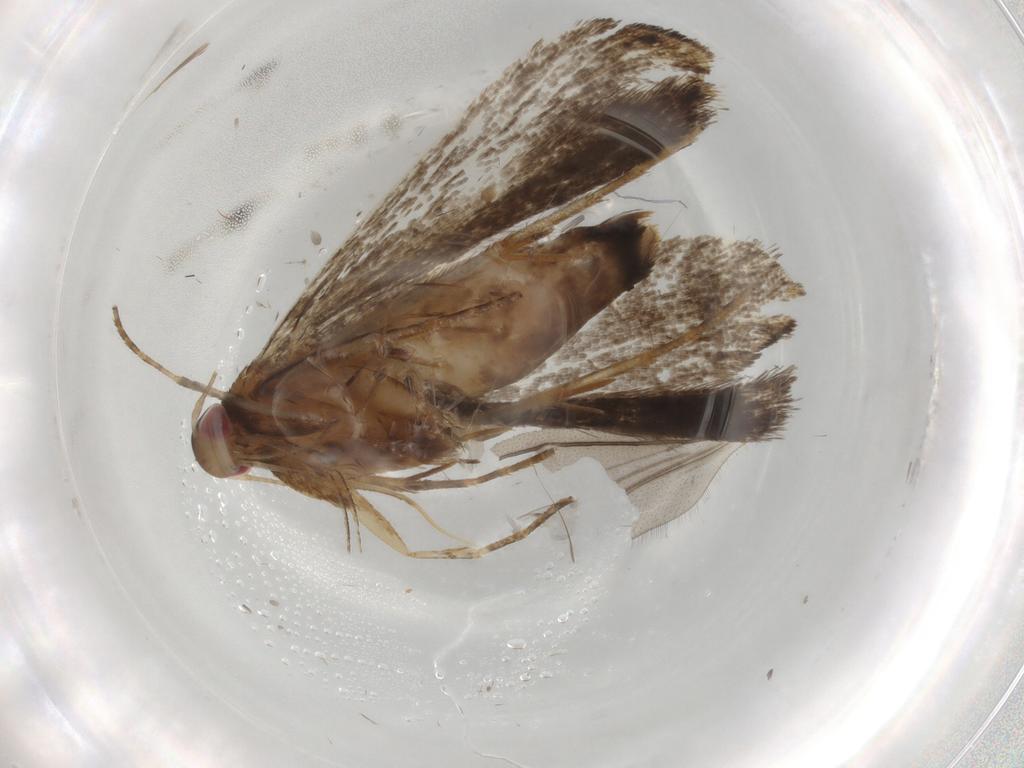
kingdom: Animalia
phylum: Arthropoda
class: Insecta
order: Lepidoptera
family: Gelechiidae
